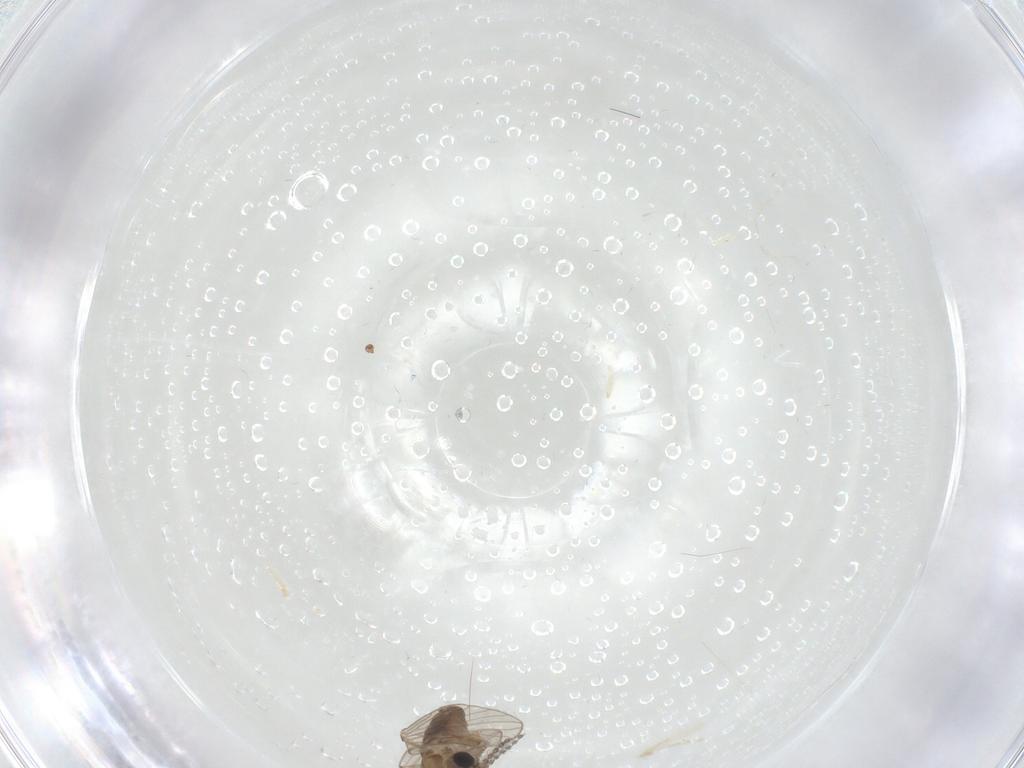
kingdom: Animalia
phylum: Arthropoda
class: Insecta
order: Diptera
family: Psychodidae
